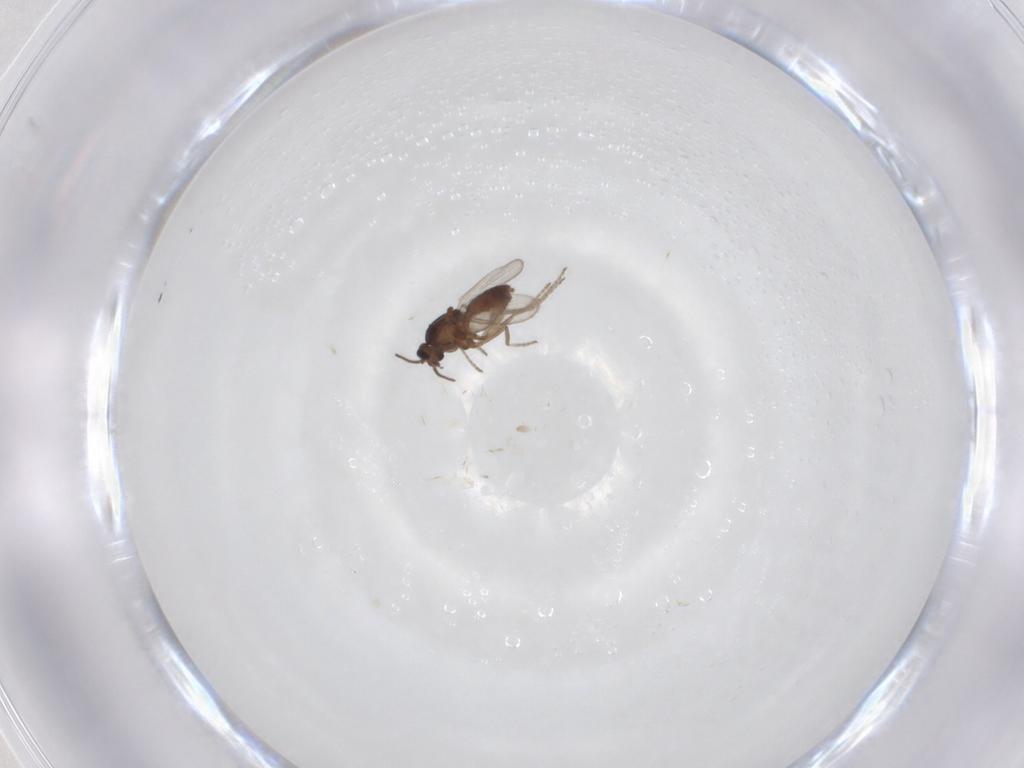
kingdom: Animalia
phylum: Arthropoda
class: Insecta
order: Diptera
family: Ceratopogonidae
